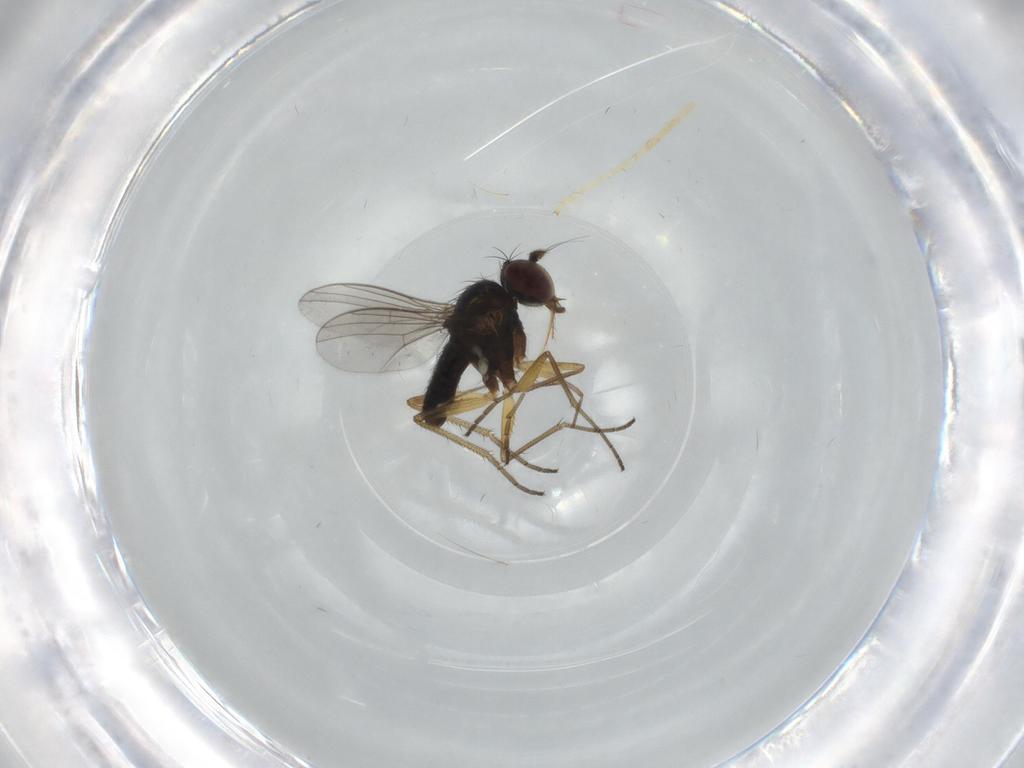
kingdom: Animalia
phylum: Arthropoda
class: Insecta
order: Diptera
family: Dolichopodidae
